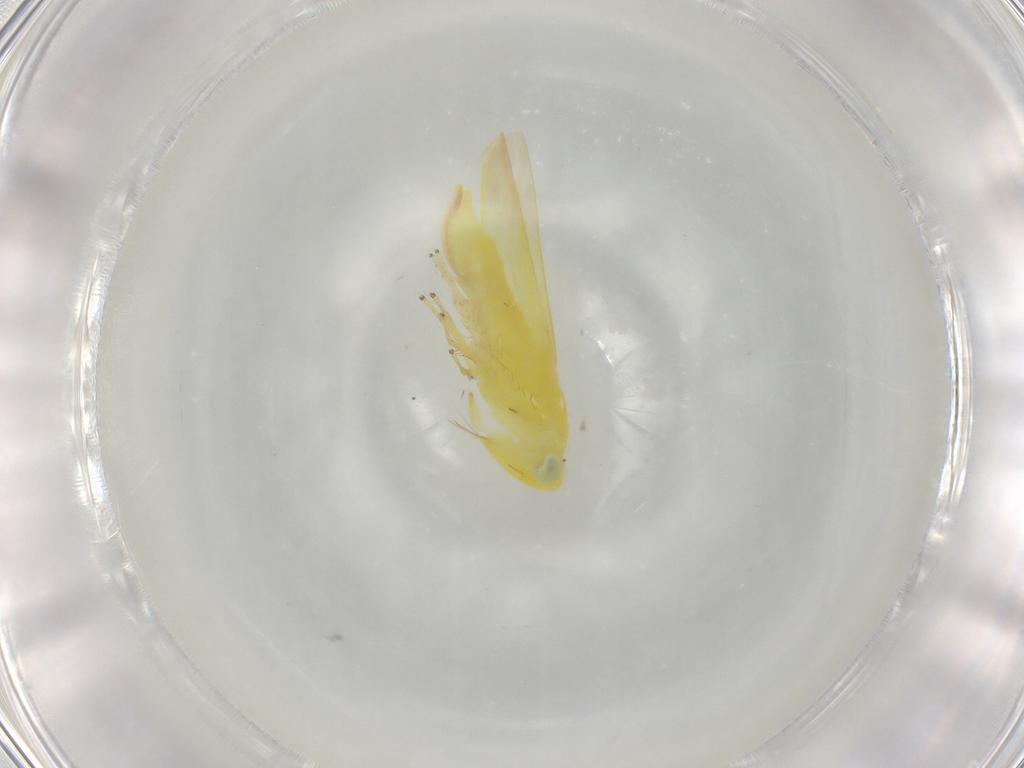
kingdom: Animalia
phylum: Arthropoda
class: Insecta
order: Hemiptera
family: Cicadellidae
